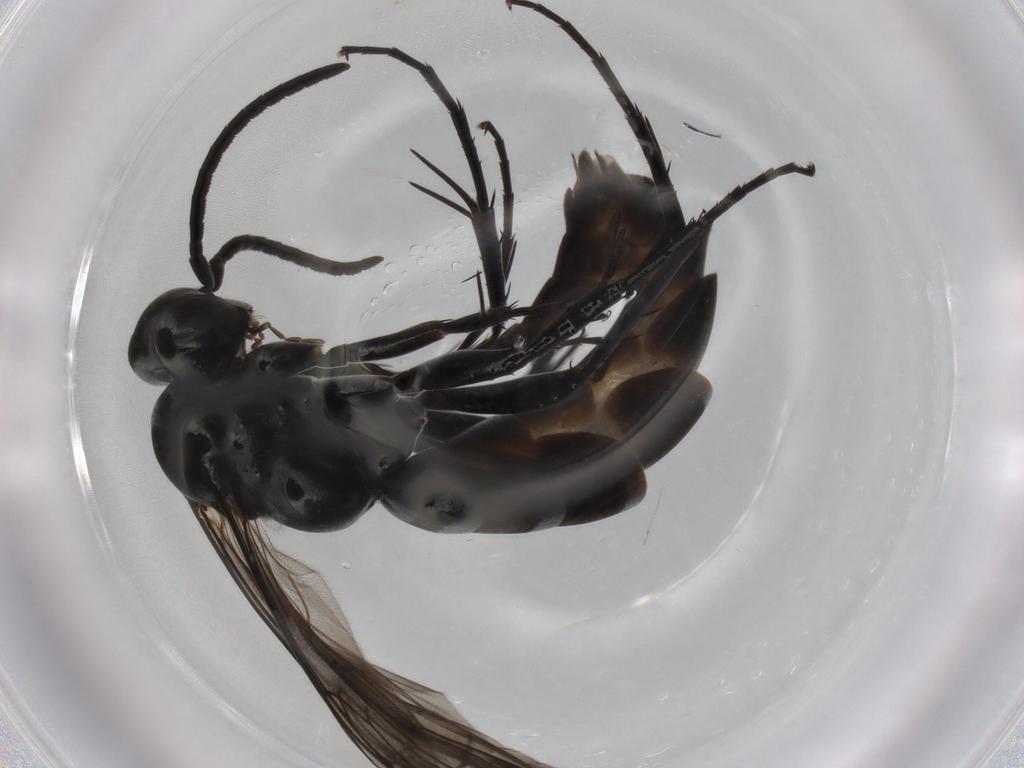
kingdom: Animalia
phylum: Arthropoda
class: Insecta
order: Hymenoptera
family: Pompilidae
